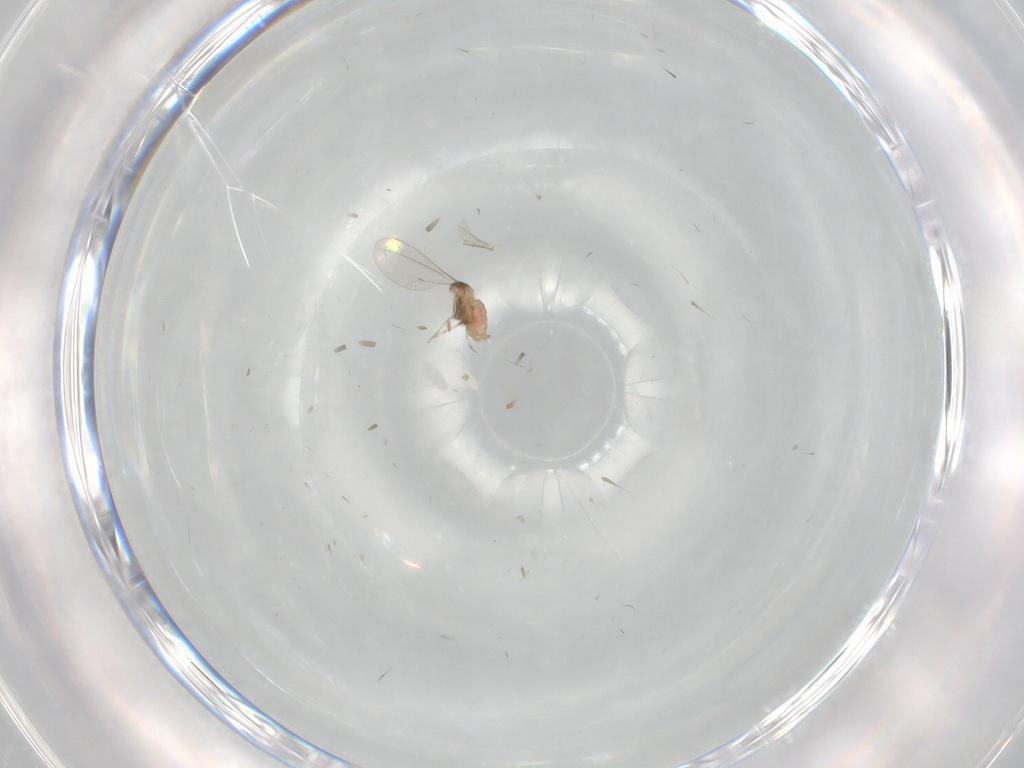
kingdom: Animalia
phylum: Arthropoda
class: Insecta
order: Diptera
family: Cecidomyiidae
